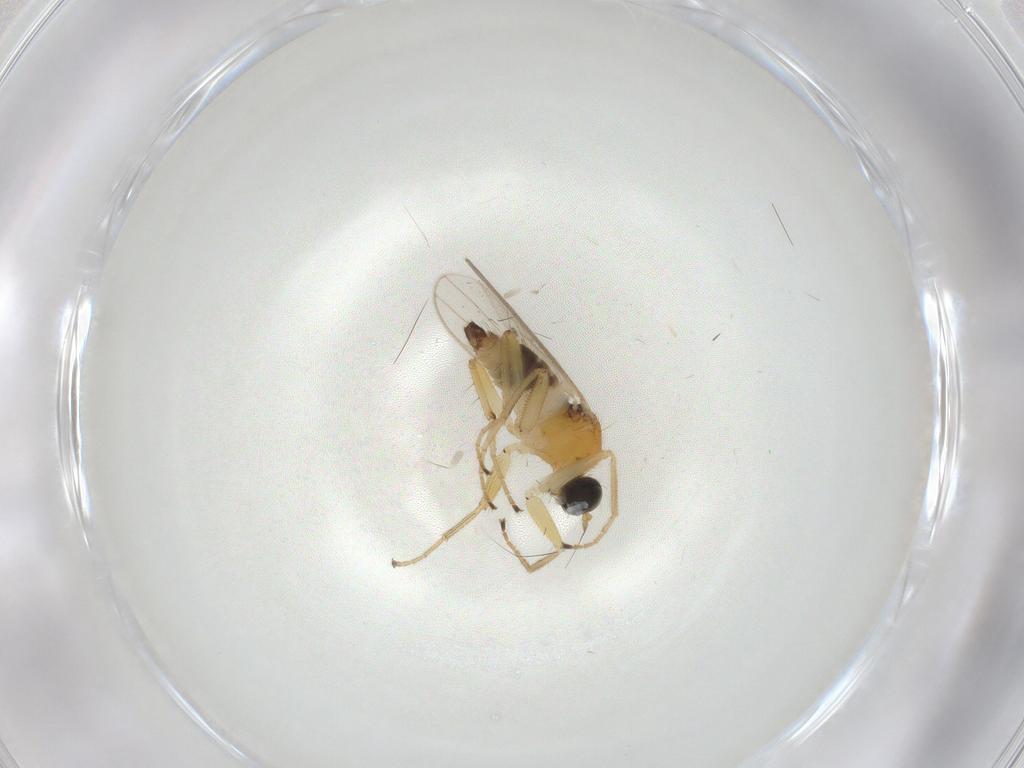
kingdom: Animalia
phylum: Arthropoda
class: Insecta
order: Diptera
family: Hybotidae
